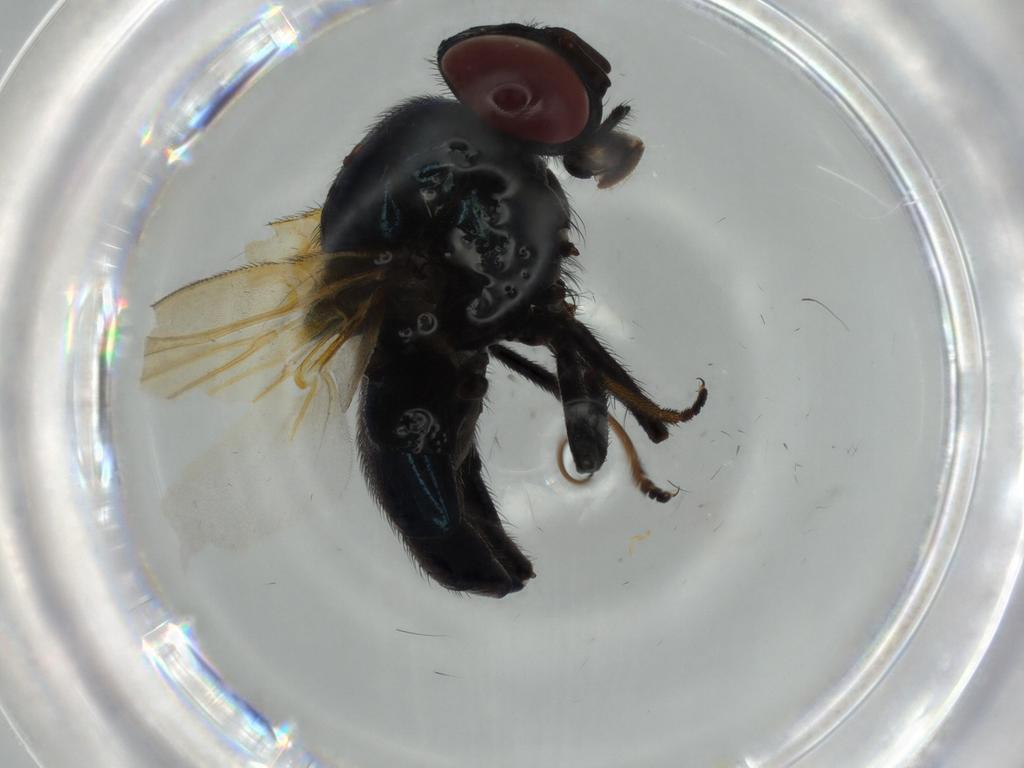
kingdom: Animalia
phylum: Arthropoda
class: Insecta
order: Diptera
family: Lonchaeidae
